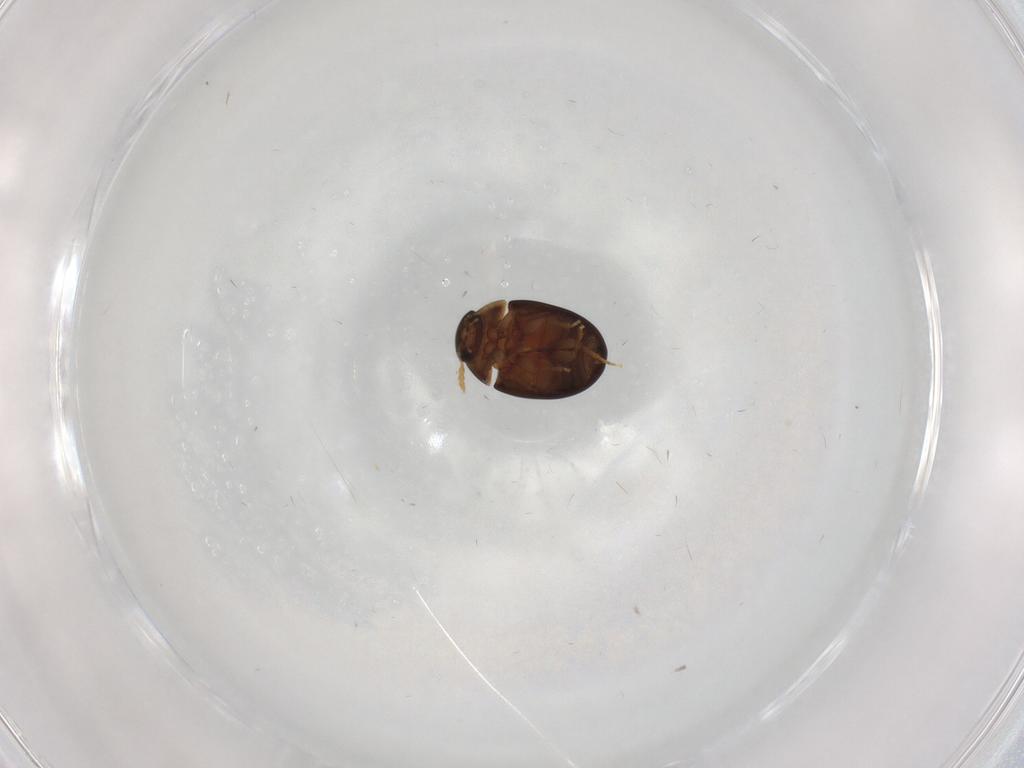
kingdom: Animalia
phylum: Arthropoda
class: Insecta
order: Coleoptera
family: Phalacridae
